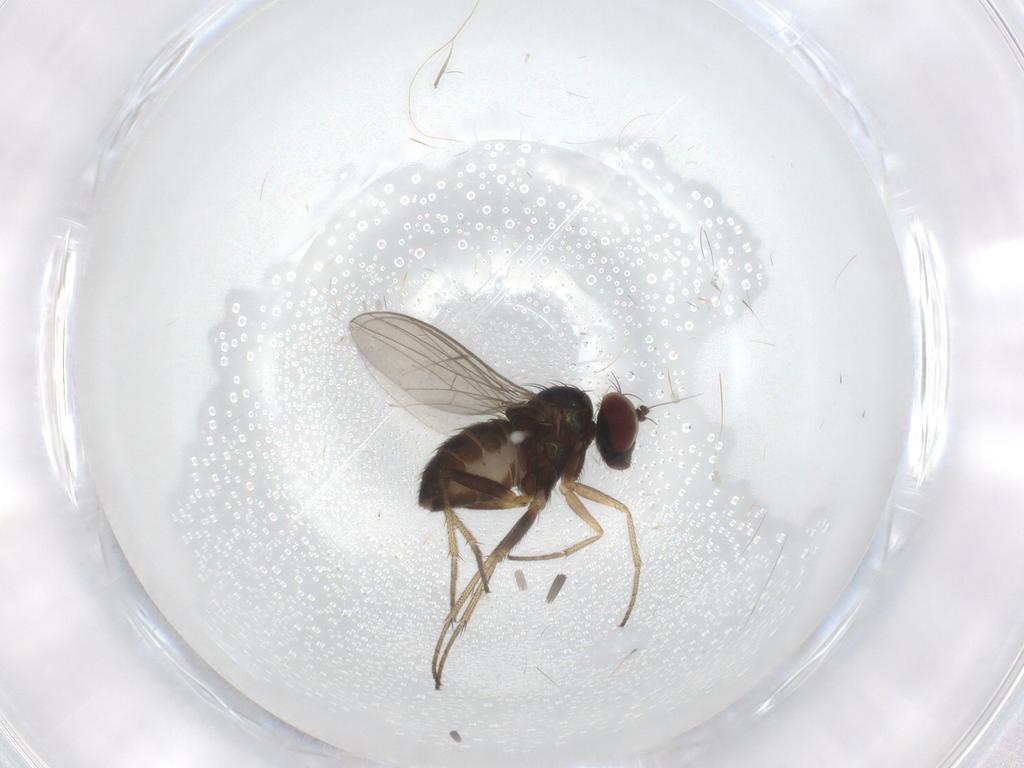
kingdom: Animalia
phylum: Arthropoda
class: Insecta
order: Diptera
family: Chironomidae
